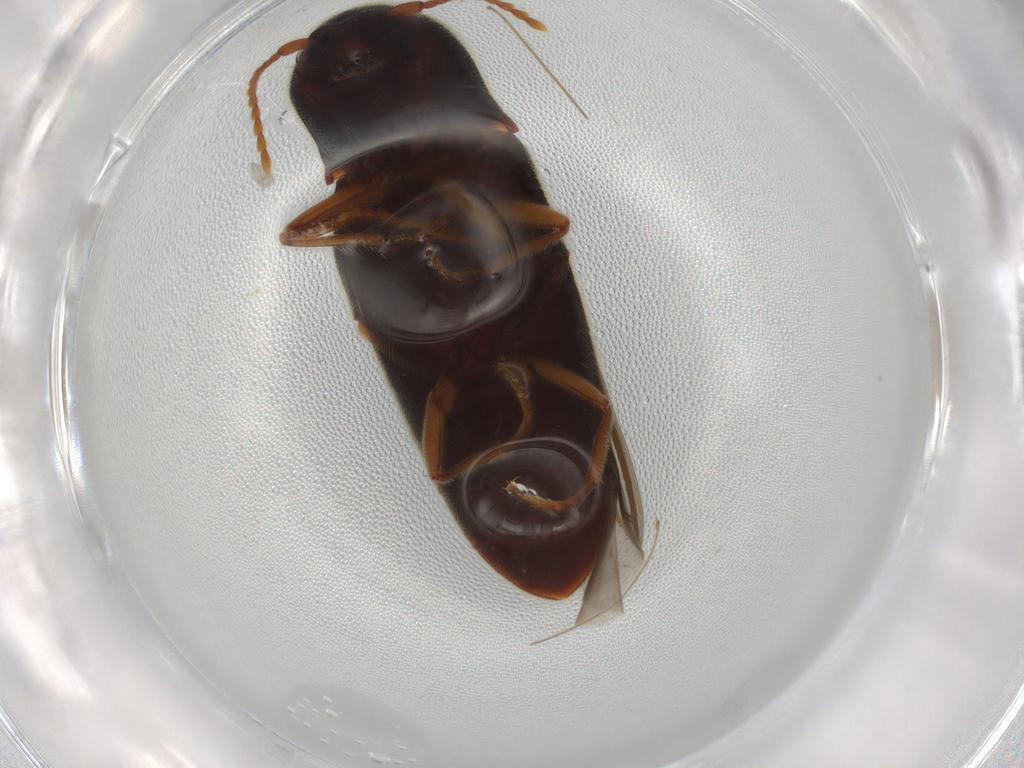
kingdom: Animalia
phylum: Arthropoda
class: Insecta
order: Coleoptera
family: Elateridae
